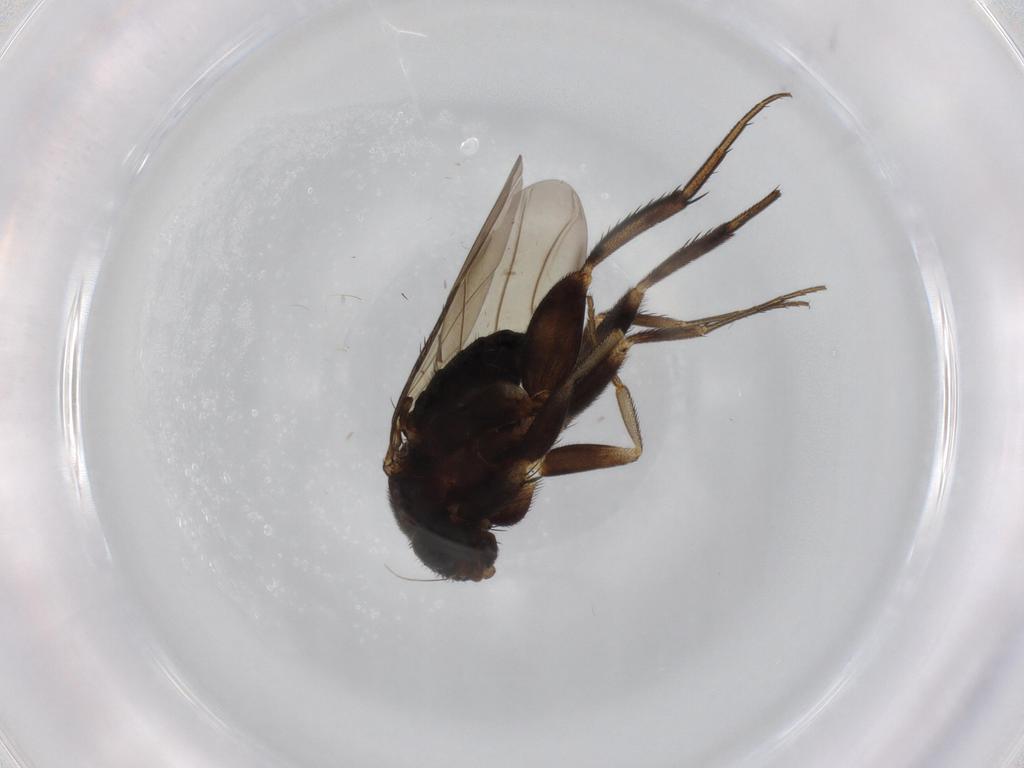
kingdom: Animalia
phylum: Arthropoda
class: Insecta
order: Diptera
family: Phoridae
